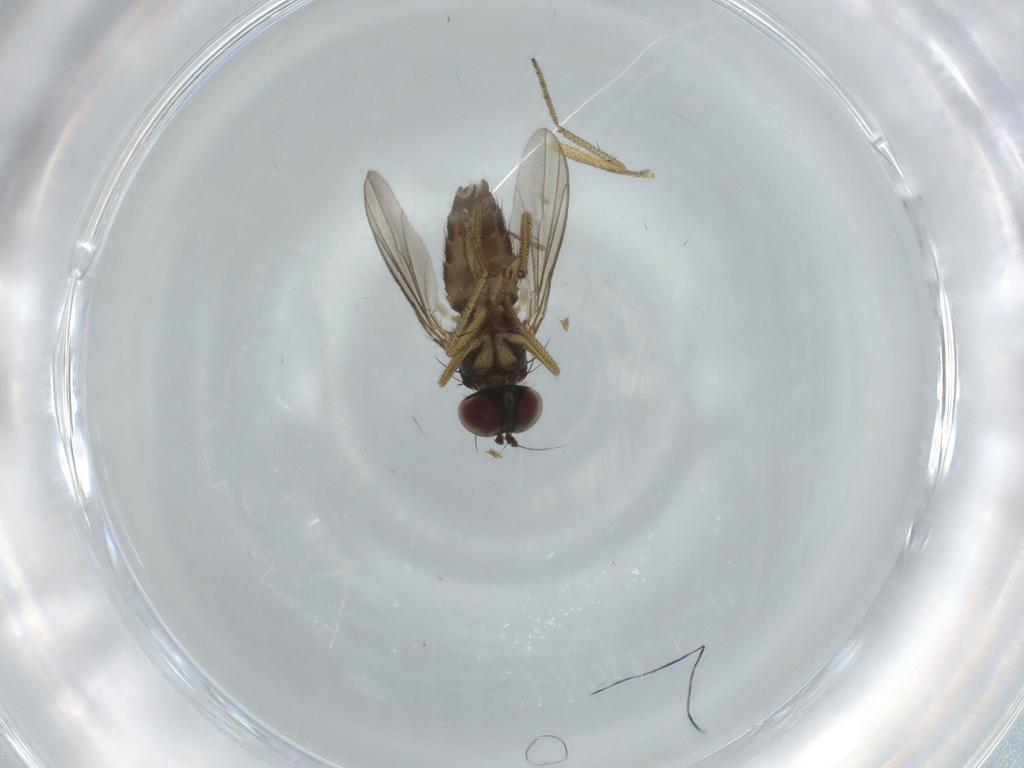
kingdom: Animalia
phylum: Arthropoda
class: Insecta
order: Diptera
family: Dolichopodidae
